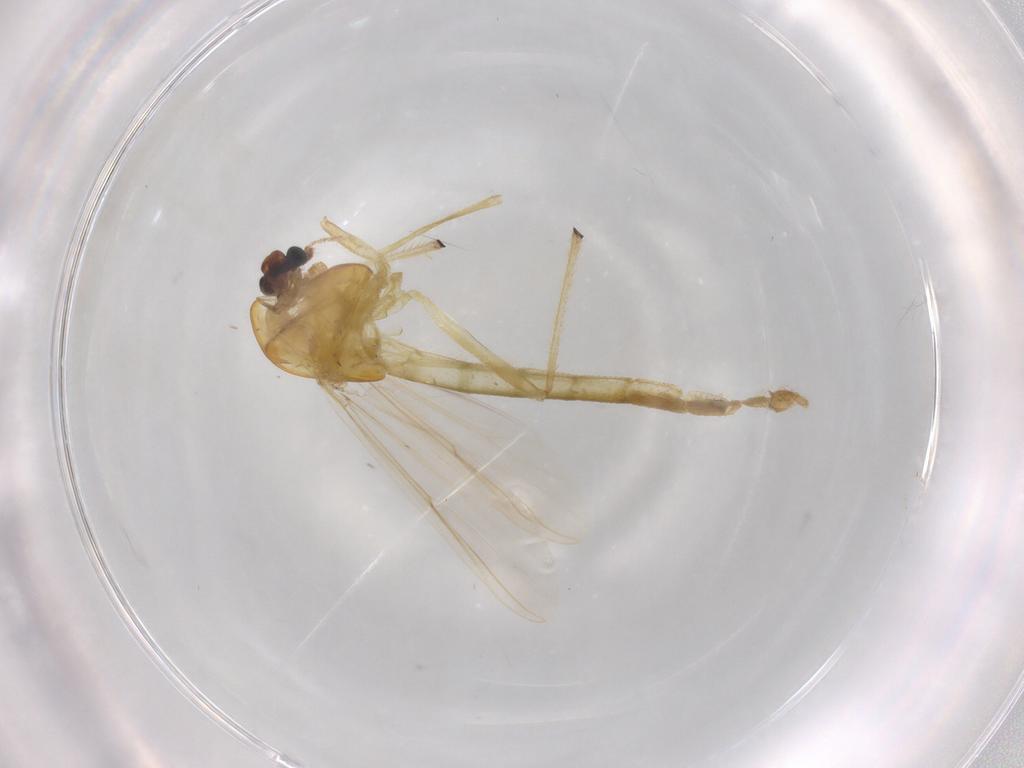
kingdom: Animalia
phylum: Arthropoda
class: Insecta
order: Diptera
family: Chironomidae
